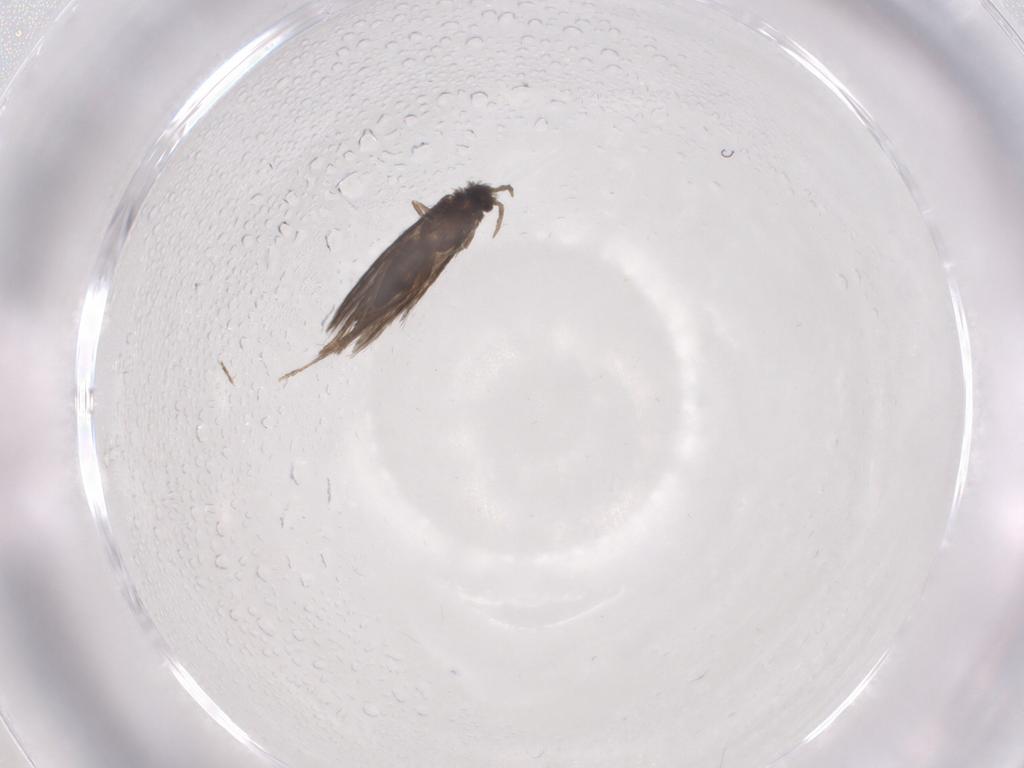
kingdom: Animalia
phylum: Arthropoda
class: Insecta
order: Trichoptera
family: Hydroptilidae
